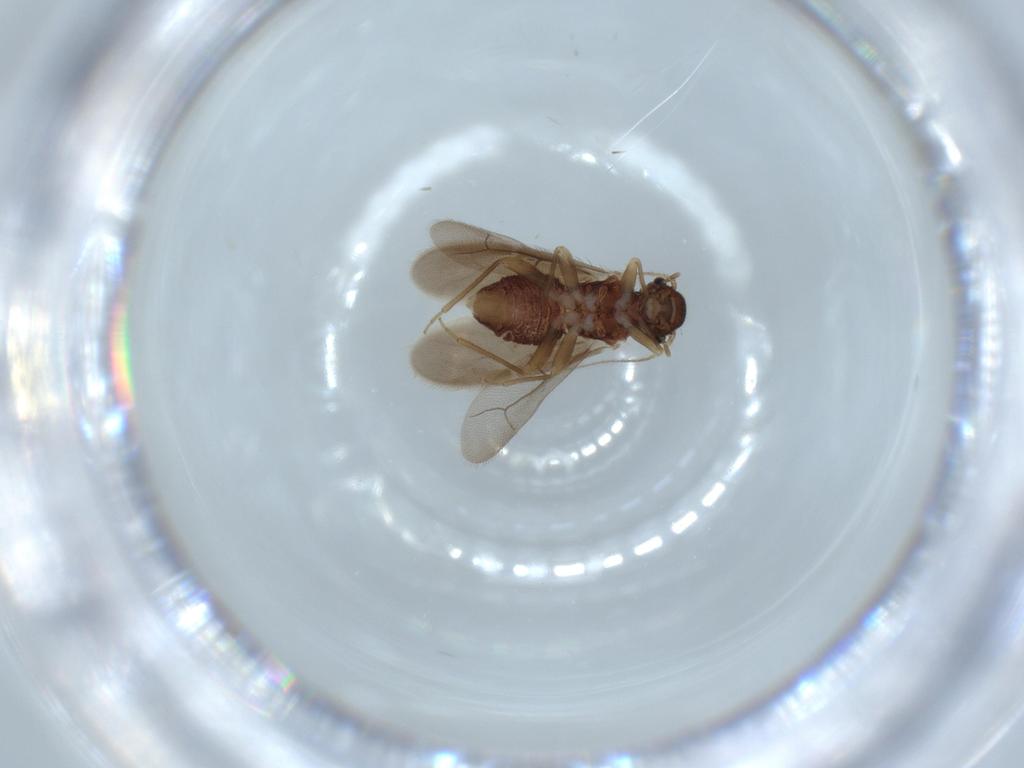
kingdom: Animalia
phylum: Arthropoda
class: Insecta
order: Psocodea
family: Archipsocidae
